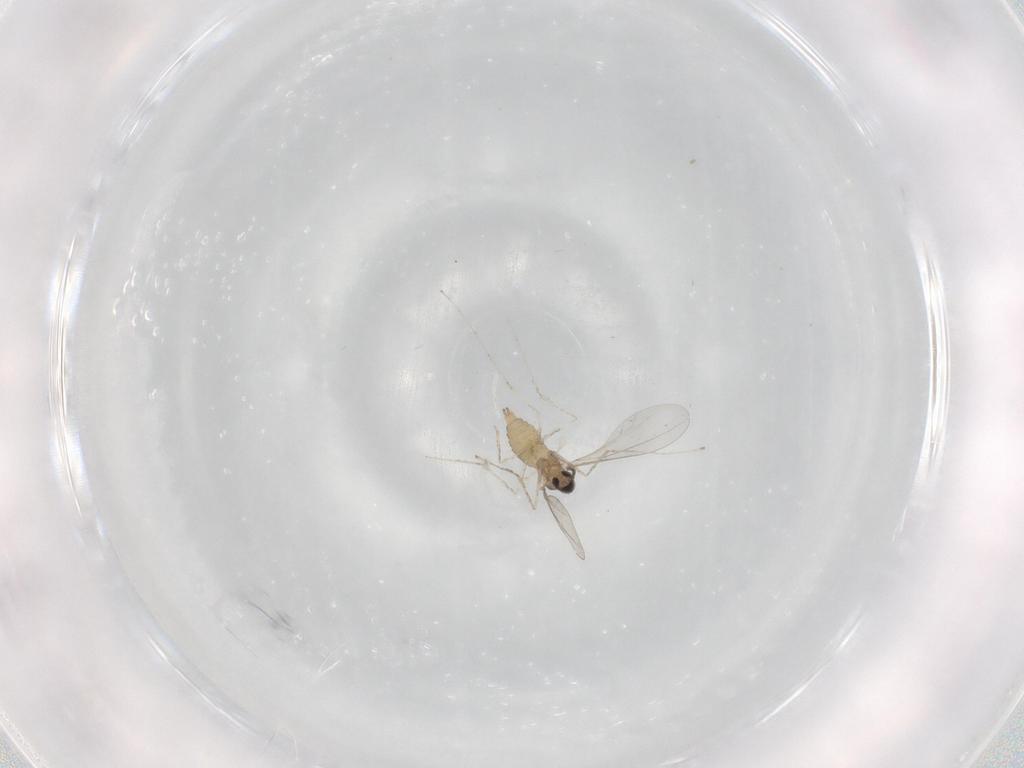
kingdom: Animalia
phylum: Arthropoda
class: Insecta
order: Diptera
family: Cecidomyiidae
